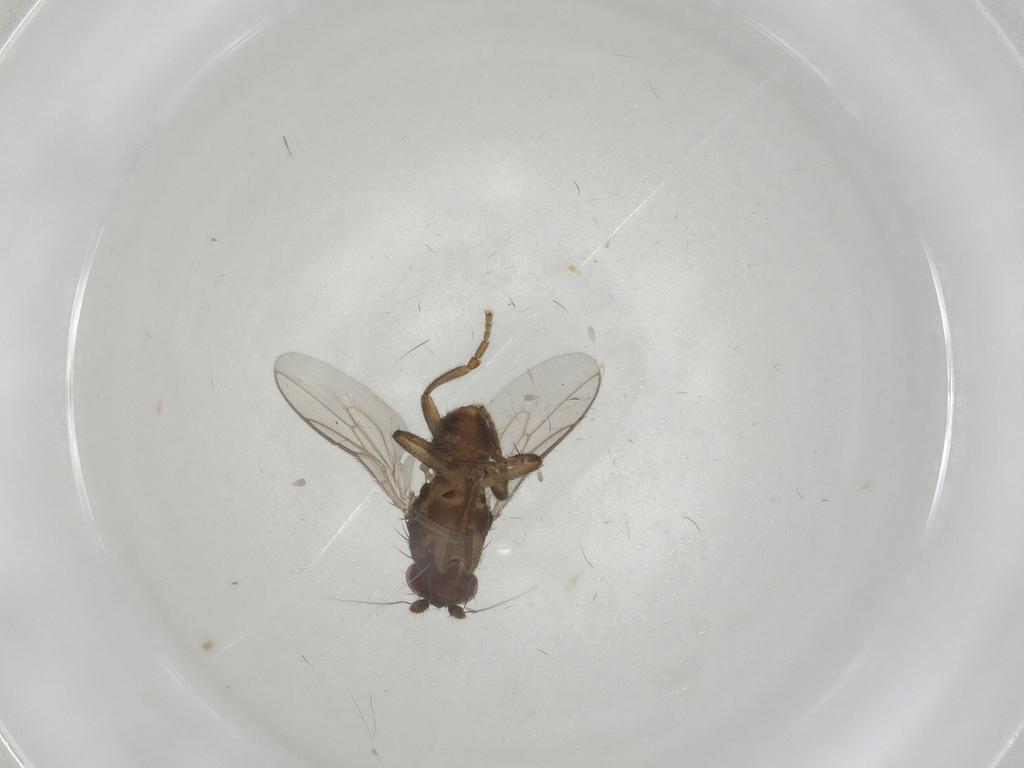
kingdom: Animalia
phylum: Arthropoda
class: Insecta
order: Diptera
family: Sphaeroceridae
